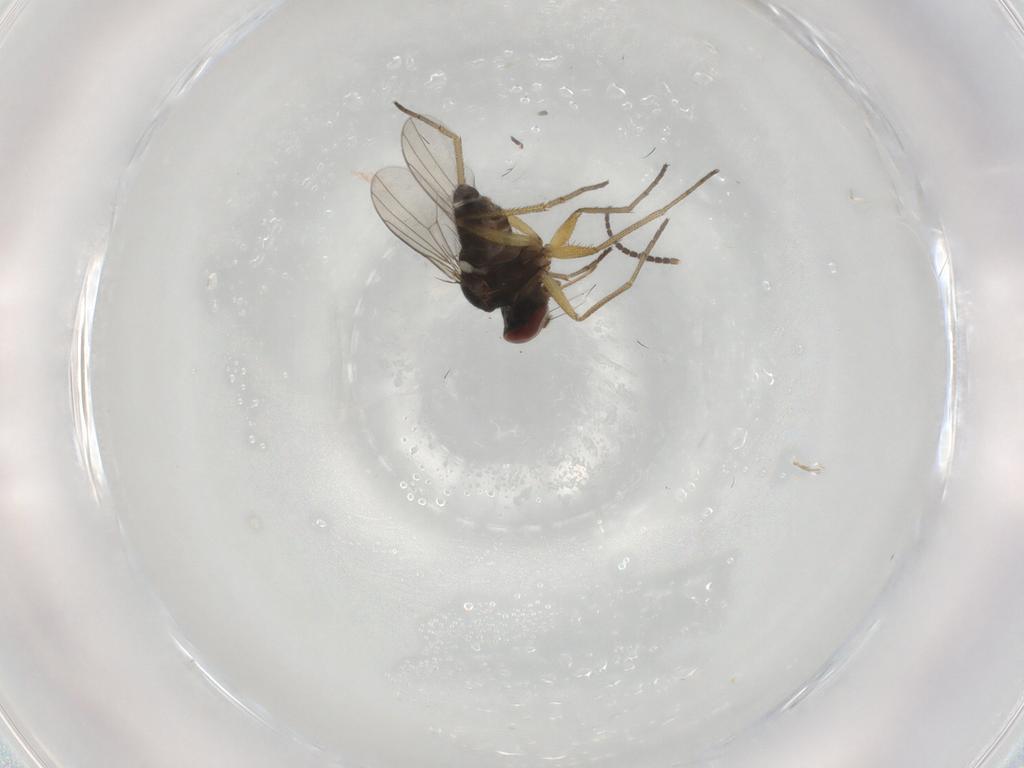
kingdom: Animalia
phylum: Arthropoda
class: Insecta
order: Diptera
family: Dolichopodidae
